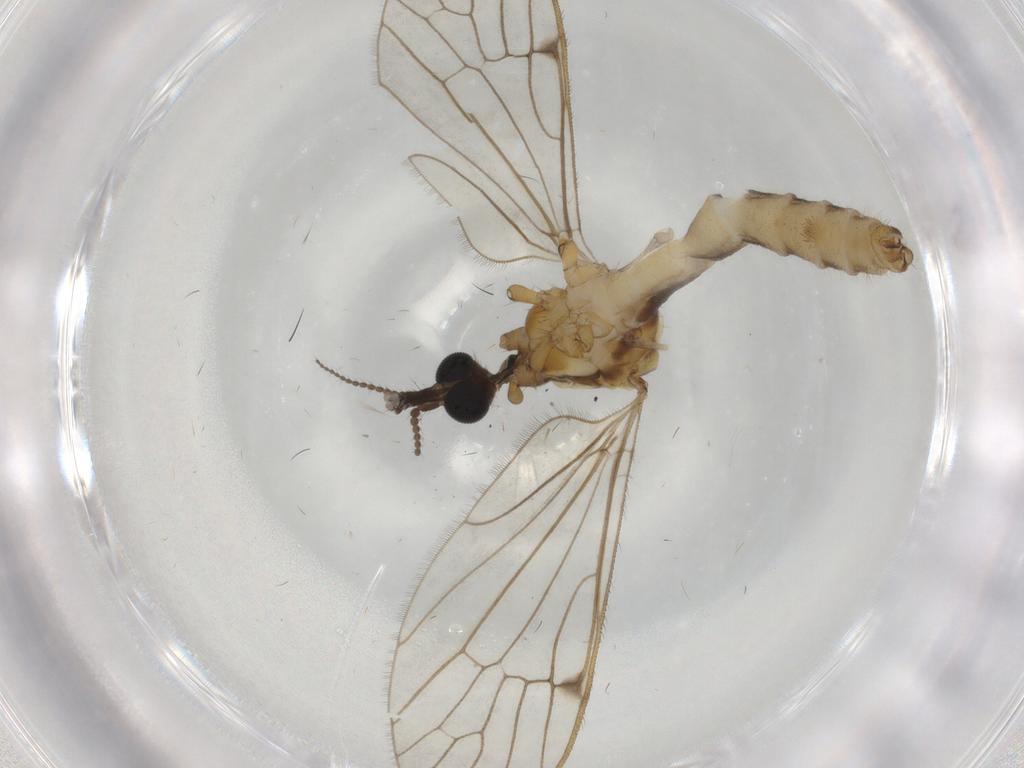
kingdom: Animalia
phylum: Arthropoda
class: Insecta
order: Diptera
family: Limoniidae
